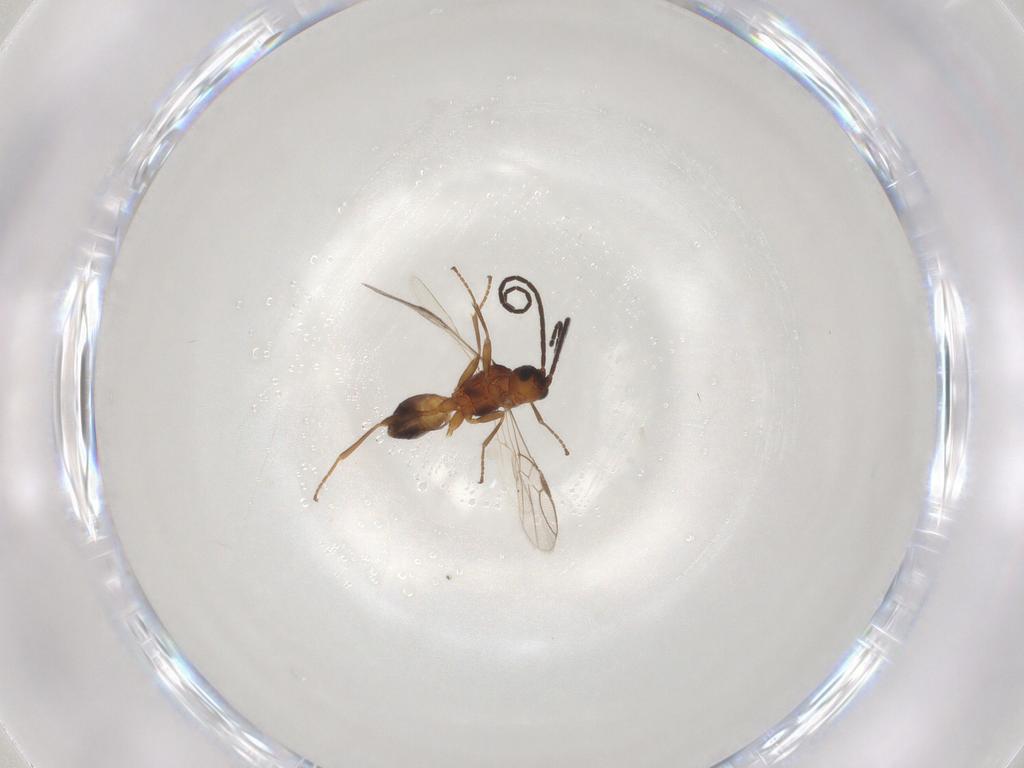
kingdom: Animalia
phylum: Arthropoda
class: Insecta
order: Hymenoptera
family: Braconidae
